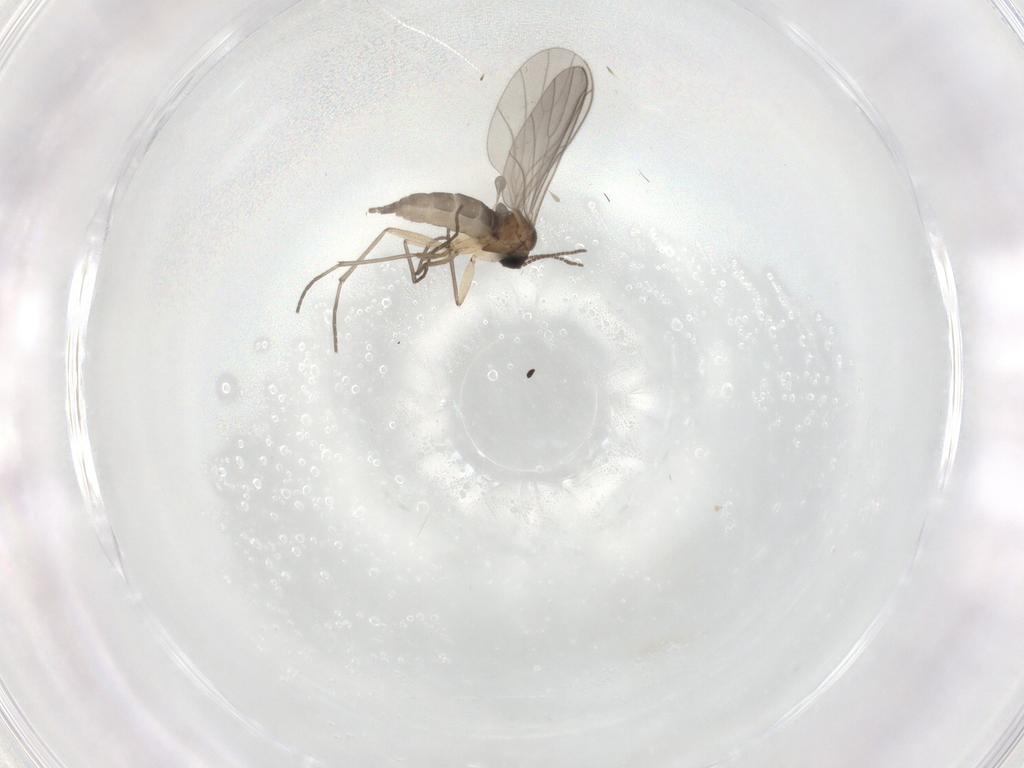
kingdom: Animalia
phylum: Arthropoda
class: Insecta
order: Diptera
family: Sciaridae
